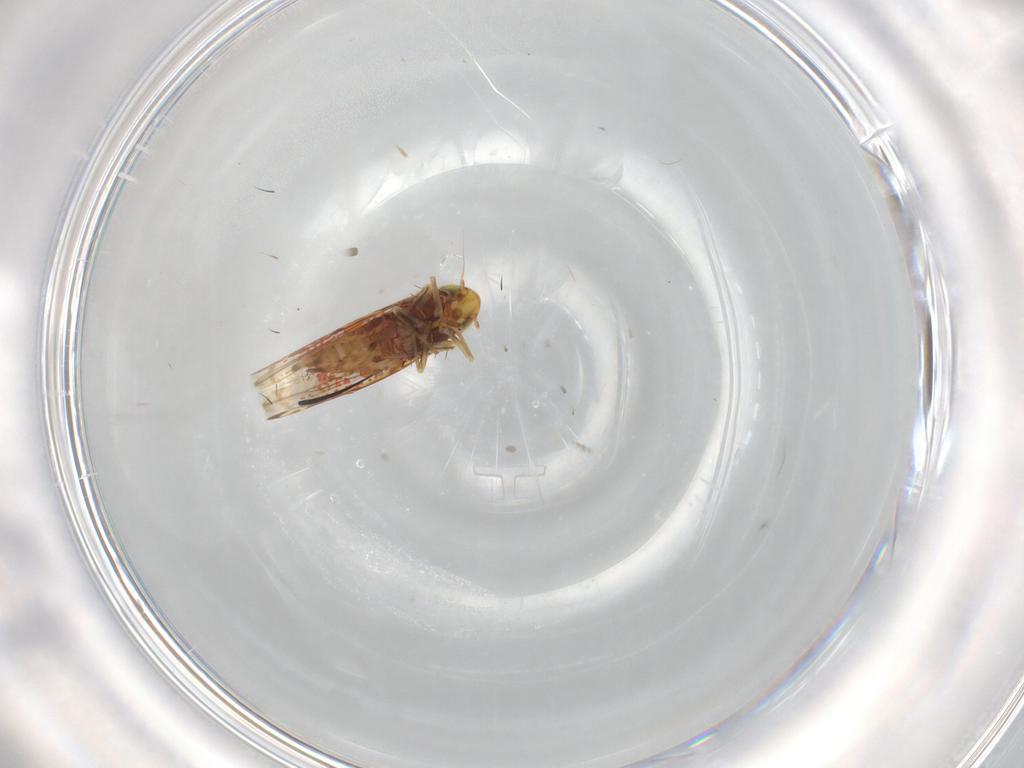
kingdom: Animalia
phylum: Arthropoda
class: Insecta
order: Hemiptera
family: Cicadellidae
